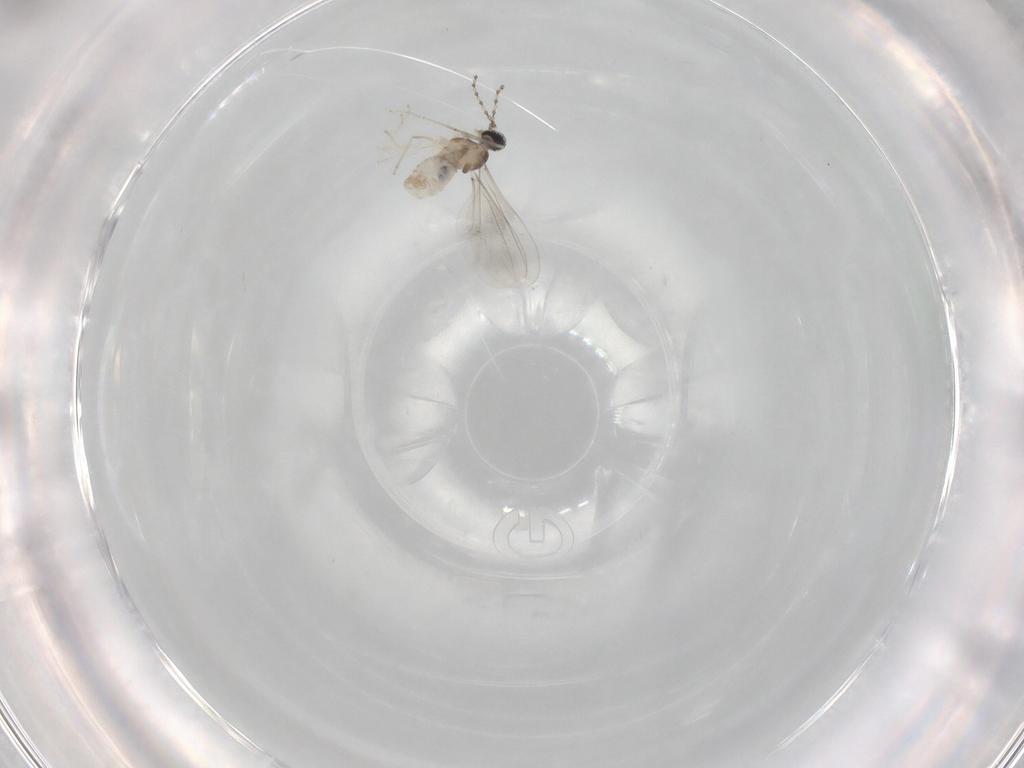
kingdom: Animalia
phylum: Arthropoda
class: Insecta
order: Diptera
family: Cecidomyiidae
